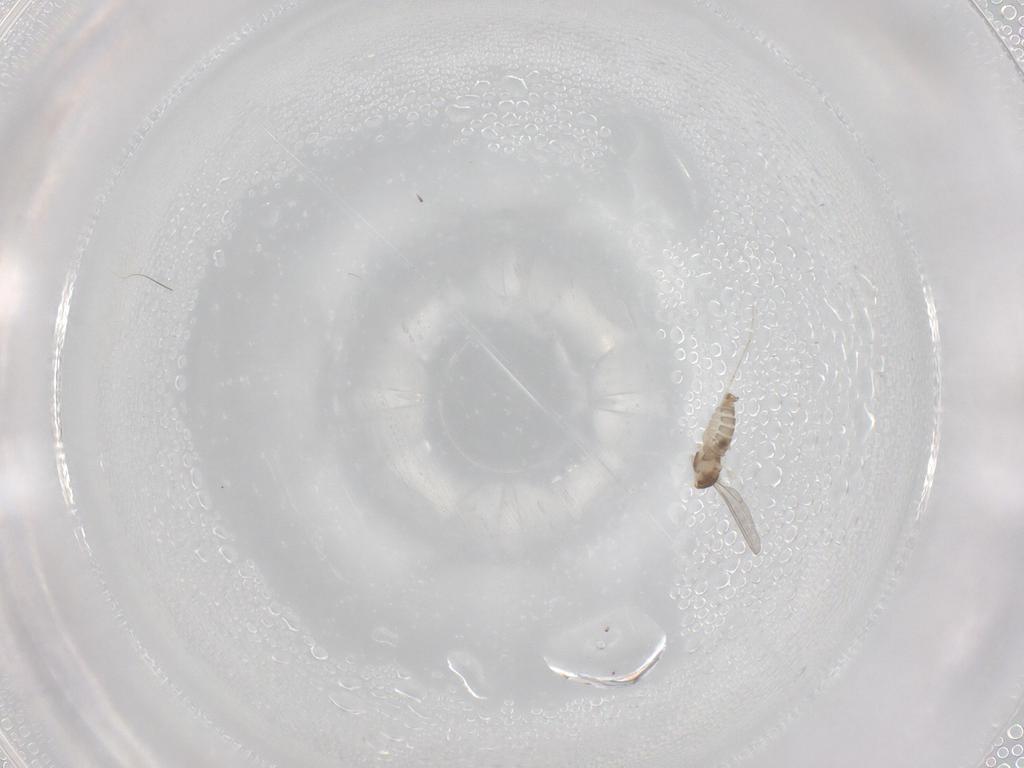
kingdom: Animalia
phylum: Arthropoda
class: Insecta
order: Diptera
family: Cecidomyiidae
